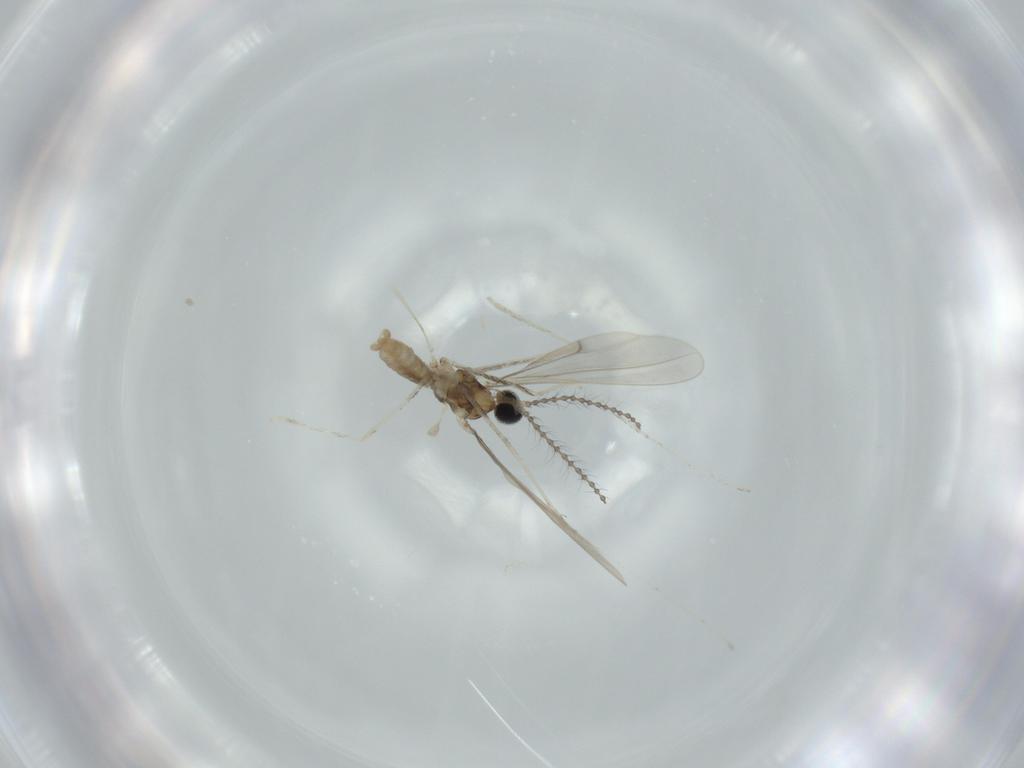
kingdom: Animalia
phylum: Arthropoda
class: Insecta
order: Diptera
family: Cecidomyiidae
